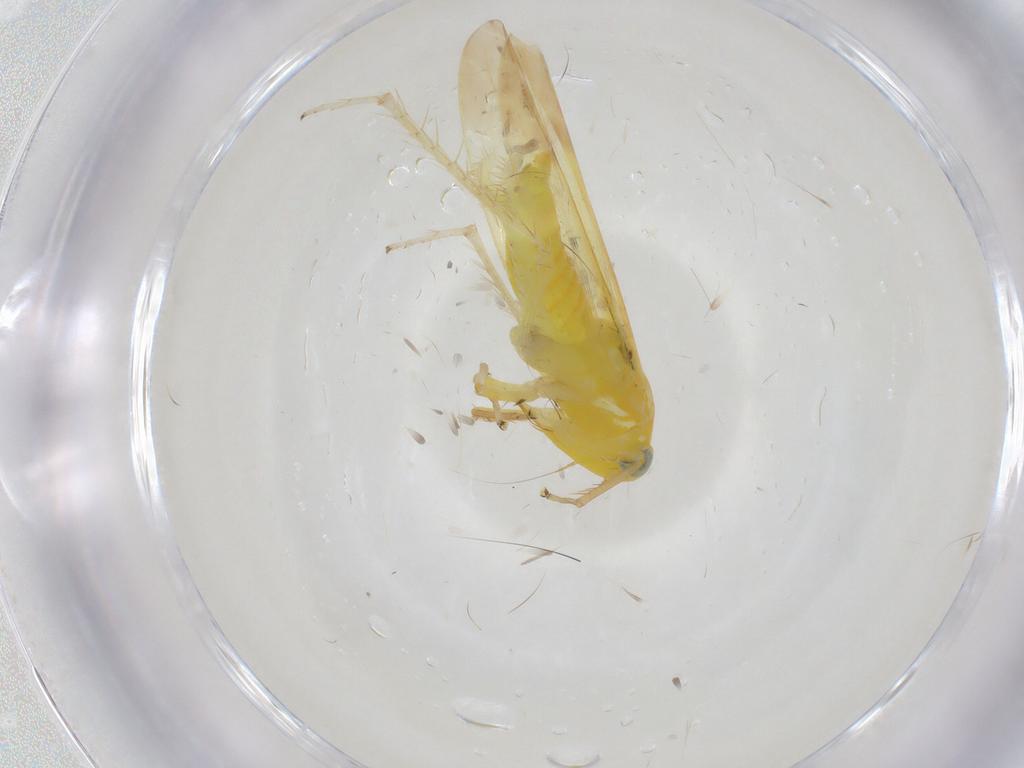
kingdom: Animalia
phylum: Arthropoda
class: Insecta
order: Hemiptera
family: Cicadellidae
